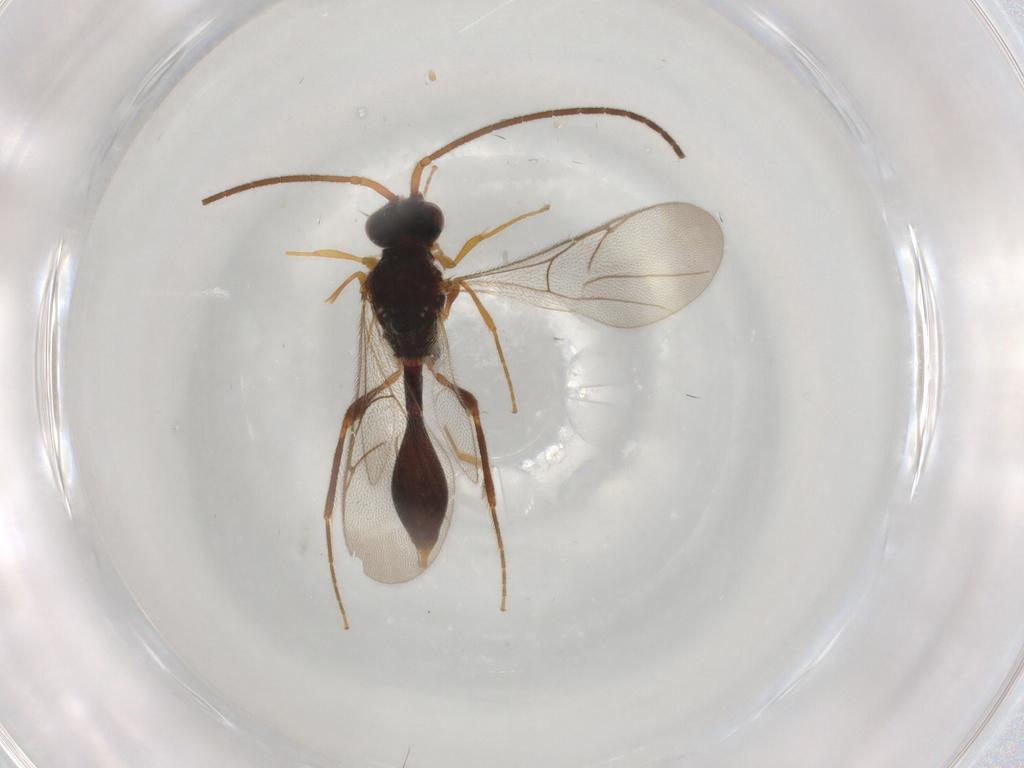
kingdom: Animalia
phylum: Arthropoda
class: Insecta
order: Hymenoptera
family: Diapriidae
